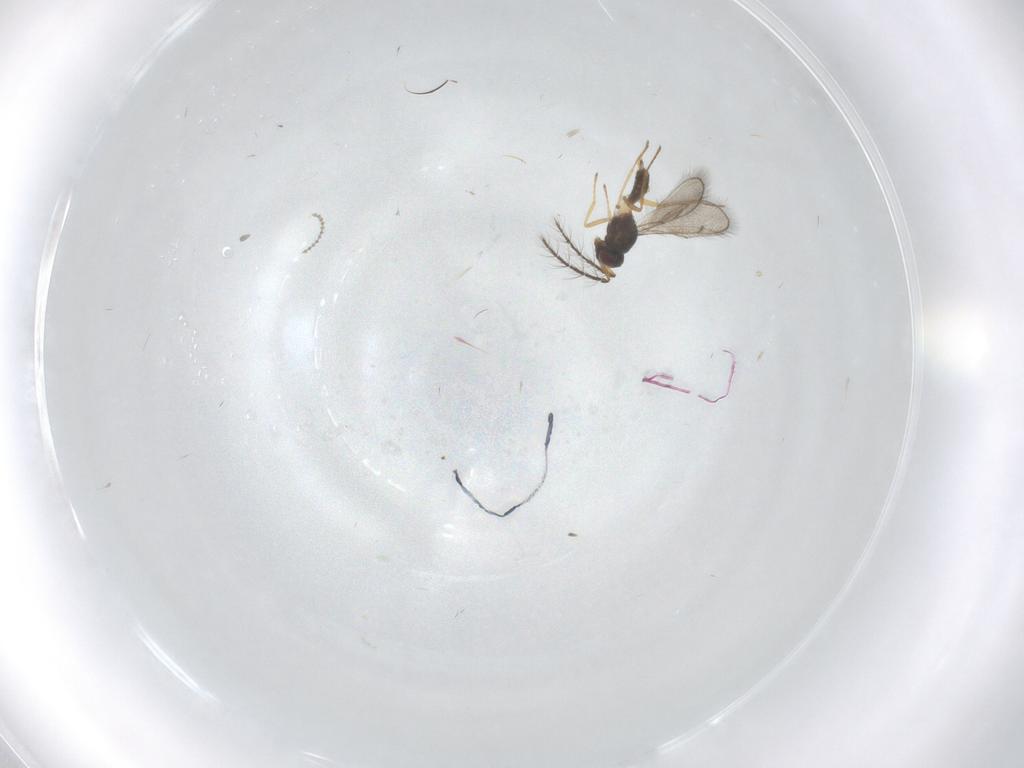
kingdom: Animalia
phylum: Arthropoda
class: Insecta
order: Hymenoptera
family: Eulophidae
